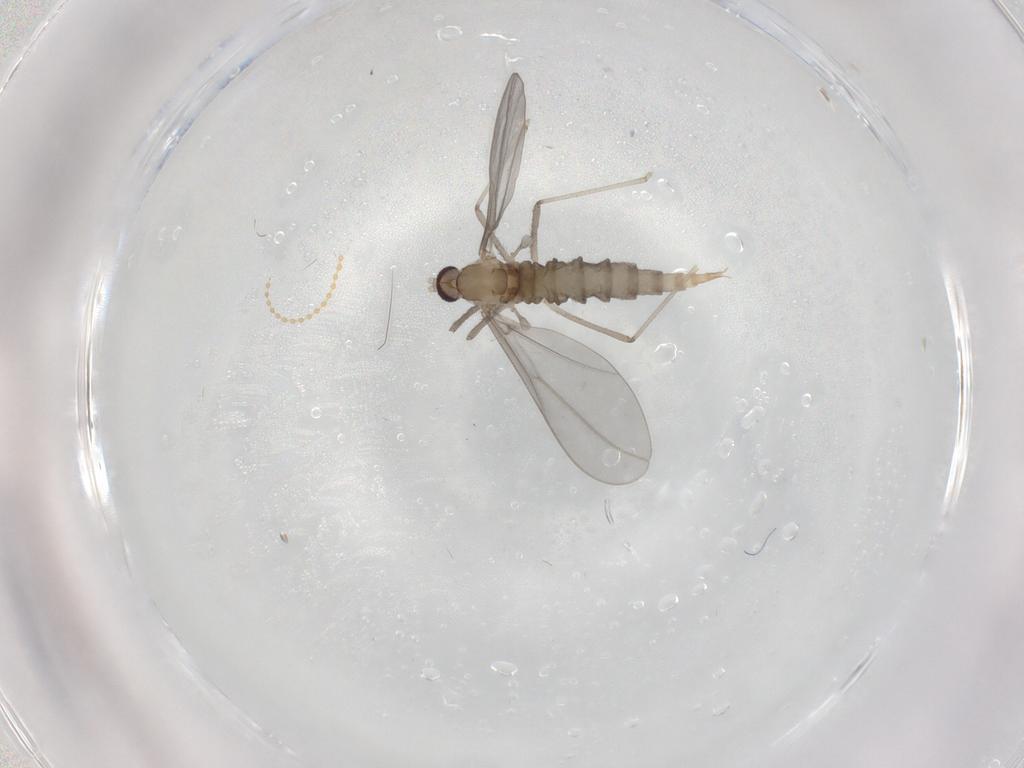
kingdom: Animalia
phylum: Arthropoda
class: Insecta
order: Diptera
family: Cecidomyiidae
